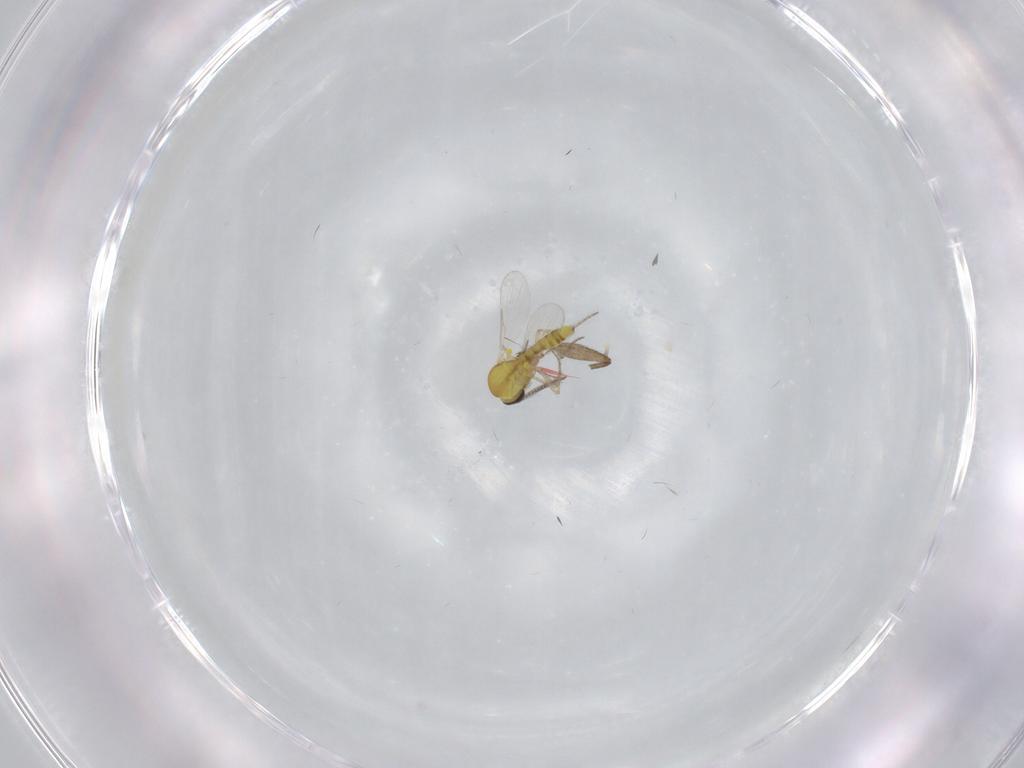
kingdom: Animalia
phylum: Arthropoda
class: Insecta
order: Diptera
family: Ceratopogonidae
